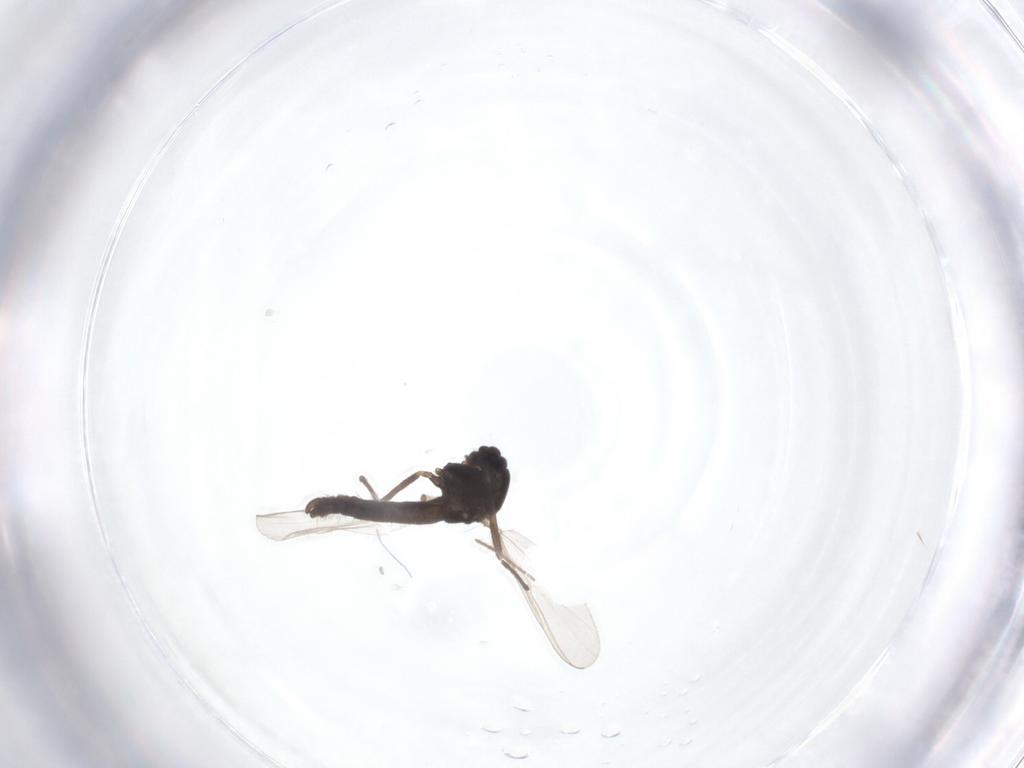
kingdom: Animalia
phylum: Arthropoda
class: Insecta
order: Diptera
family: Chironomidae
